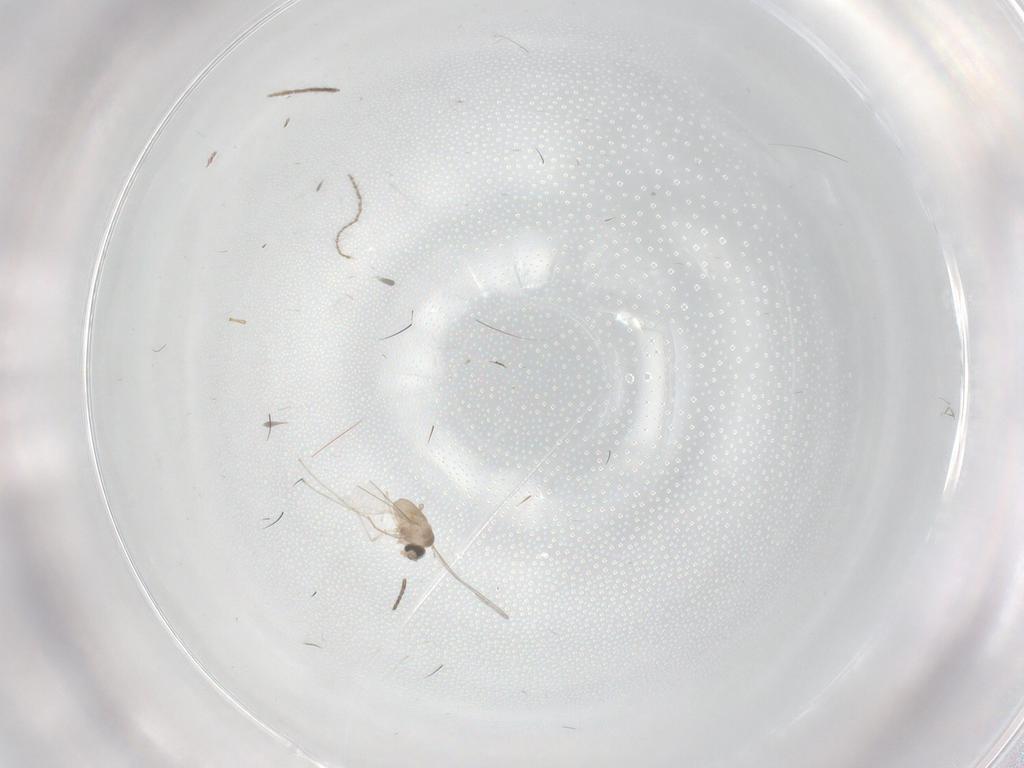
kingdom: Animalia
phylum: Arthropoda
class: Insecta
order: Diptera
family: Cecidomyiidae
